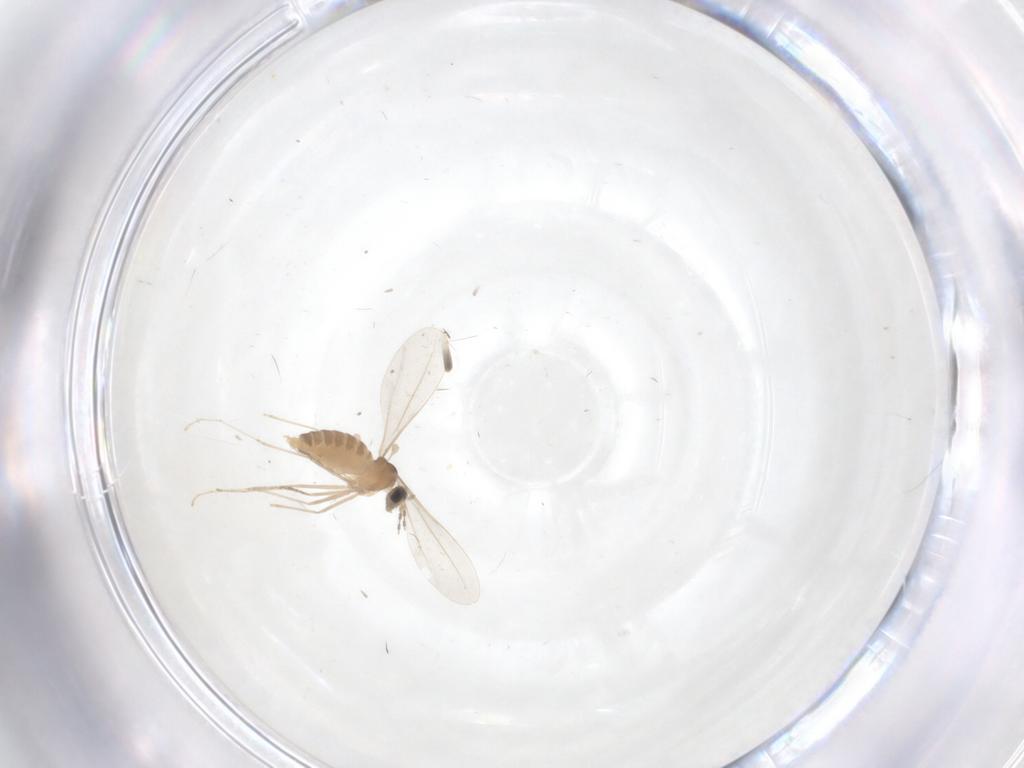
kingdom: Animalia
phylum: Arthropoda
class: Insecta
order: Diptera
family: Cecidomyiidae
